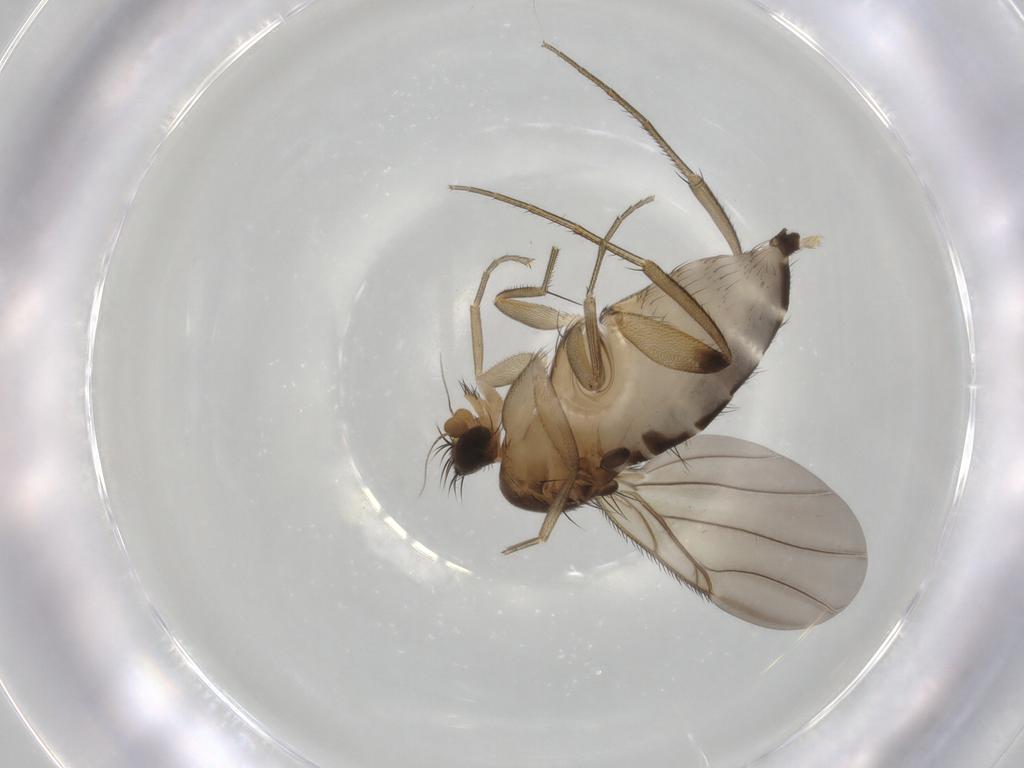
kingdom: Animalia
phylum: Arthropoda
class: Insecta
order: Diptera
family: Phoridae
